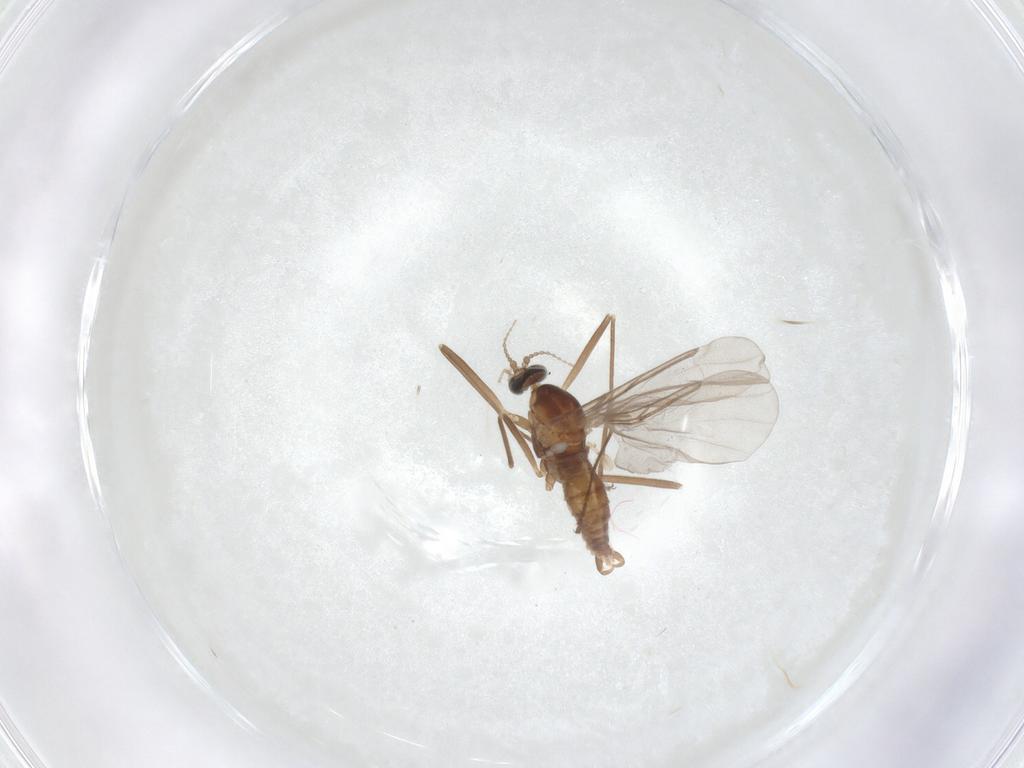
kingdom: Animalia
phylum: Arthropoda
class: Insecta
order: Diptera
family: Cecidomyiidae
